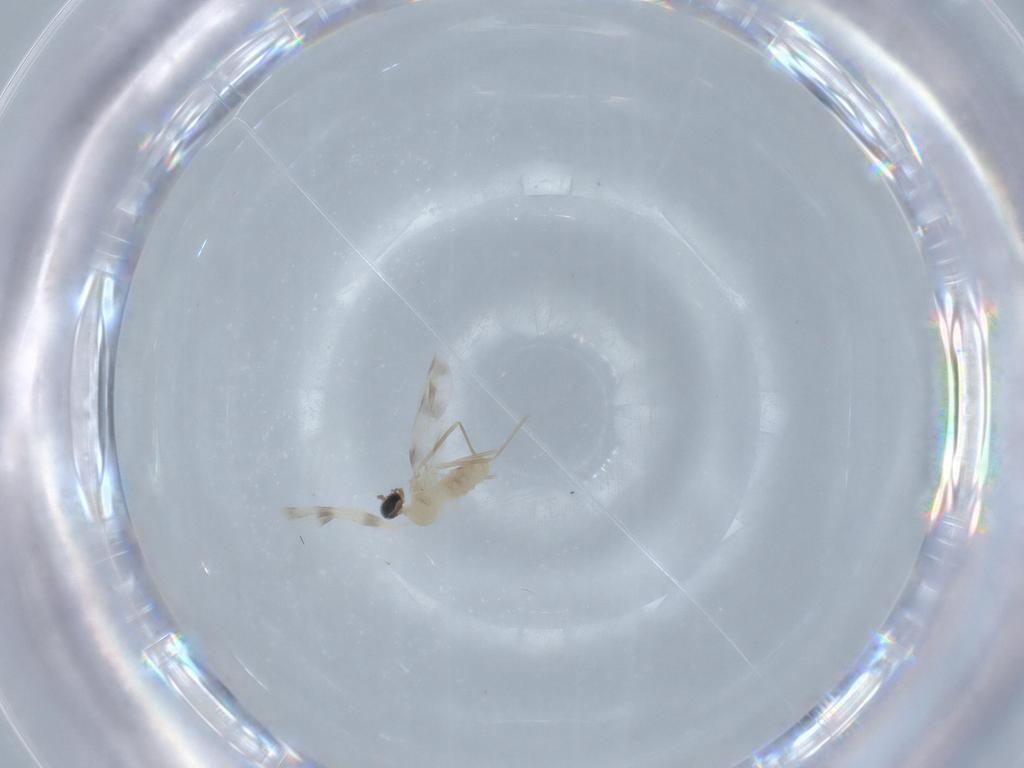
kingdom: Animalia
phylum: Arthropoda
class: Insecta
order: Diptera
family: Cecidomyiidae
